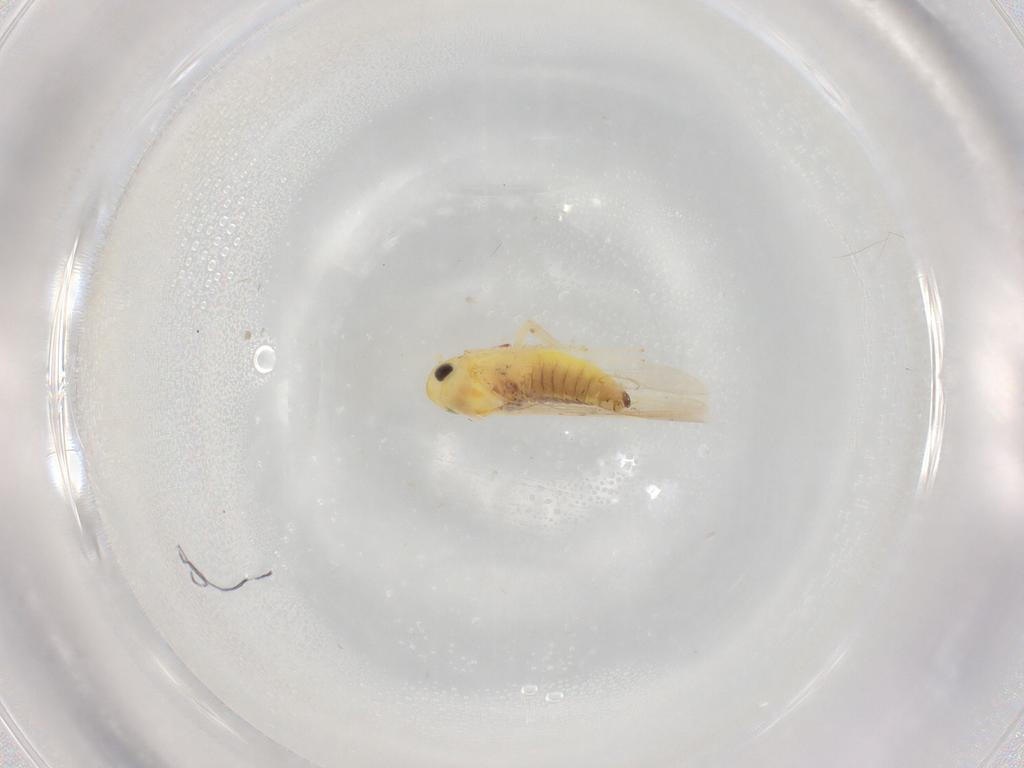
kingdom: Animalia
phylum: Arthropoda
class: Insecta
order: Hemiptera
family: Cicadellidae
